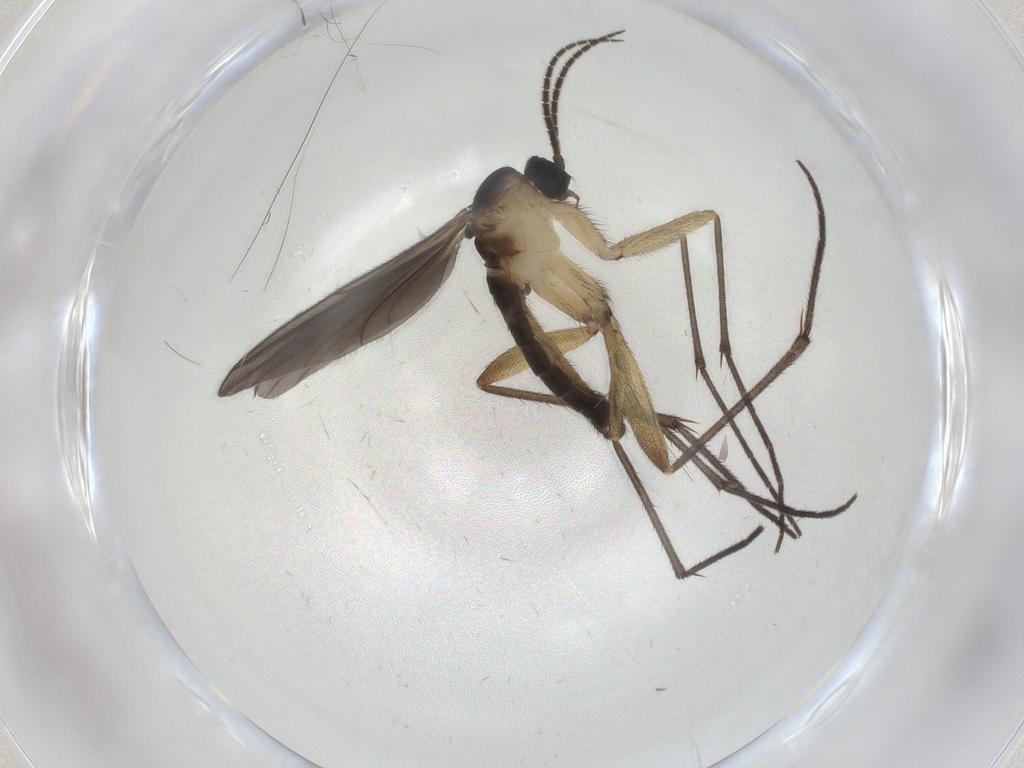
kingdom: Animalia
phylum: Arthropoda
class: Insecta
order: Diptera
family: Sciaridae
